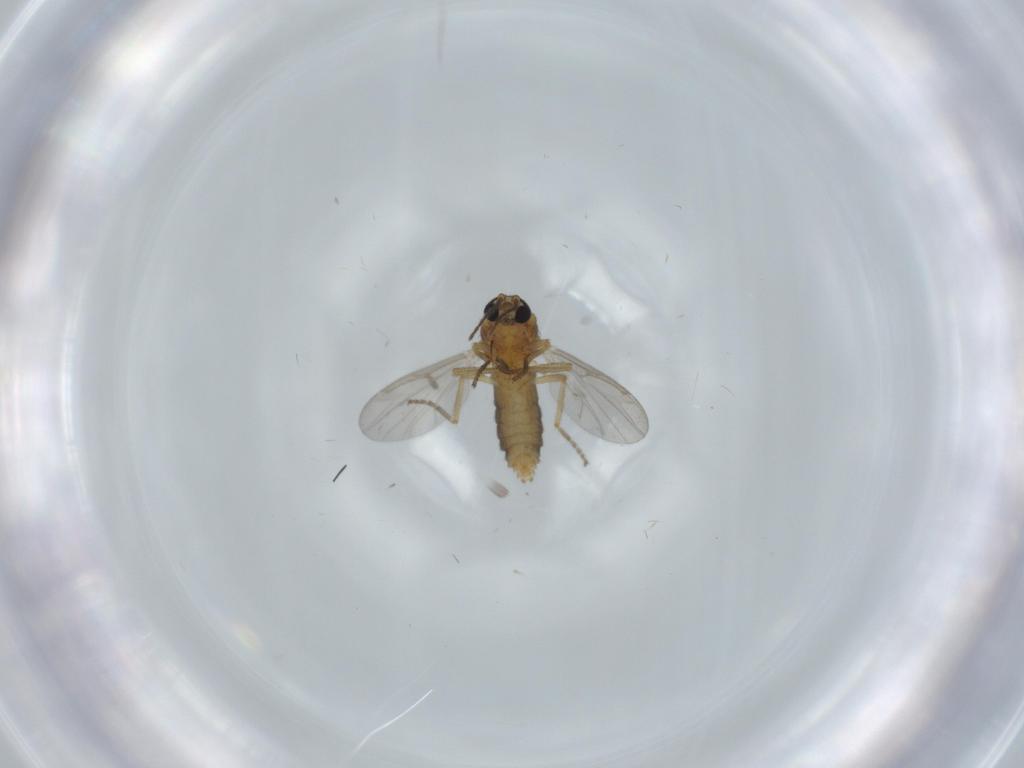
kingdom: Animalia
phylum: Arthropoda
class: Insecta
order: Diptera
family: Ceratopogonidae
